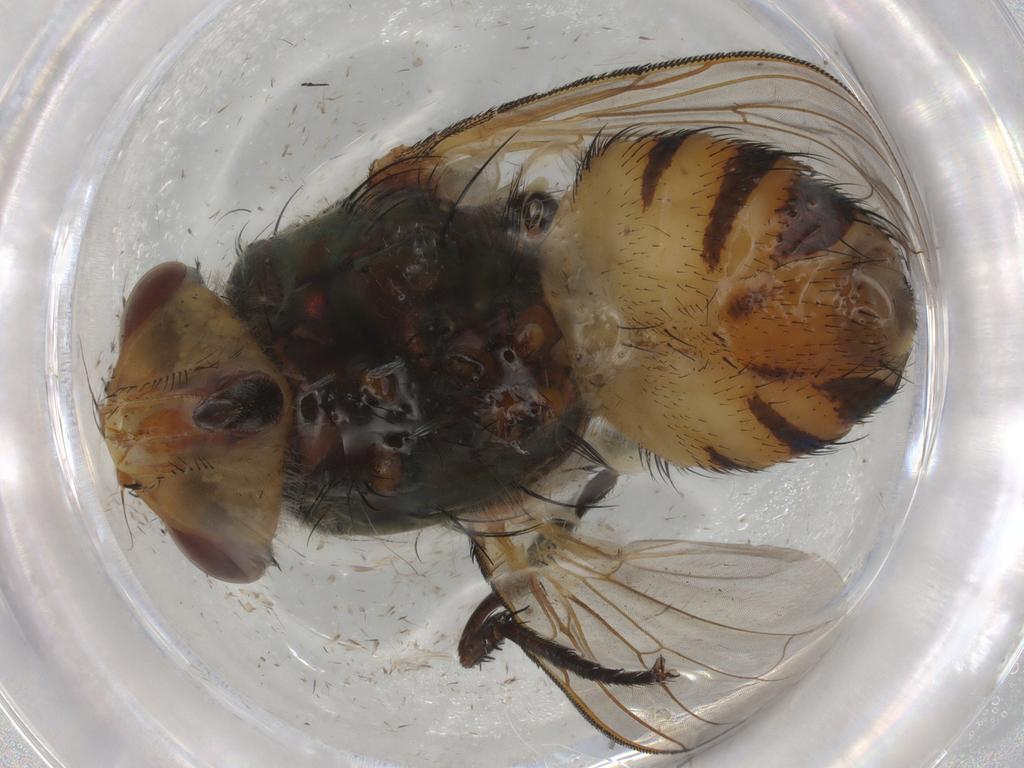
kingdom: Animalia
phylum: Arthropoda
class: Insecta
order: Diptera
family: Calliphoridae
